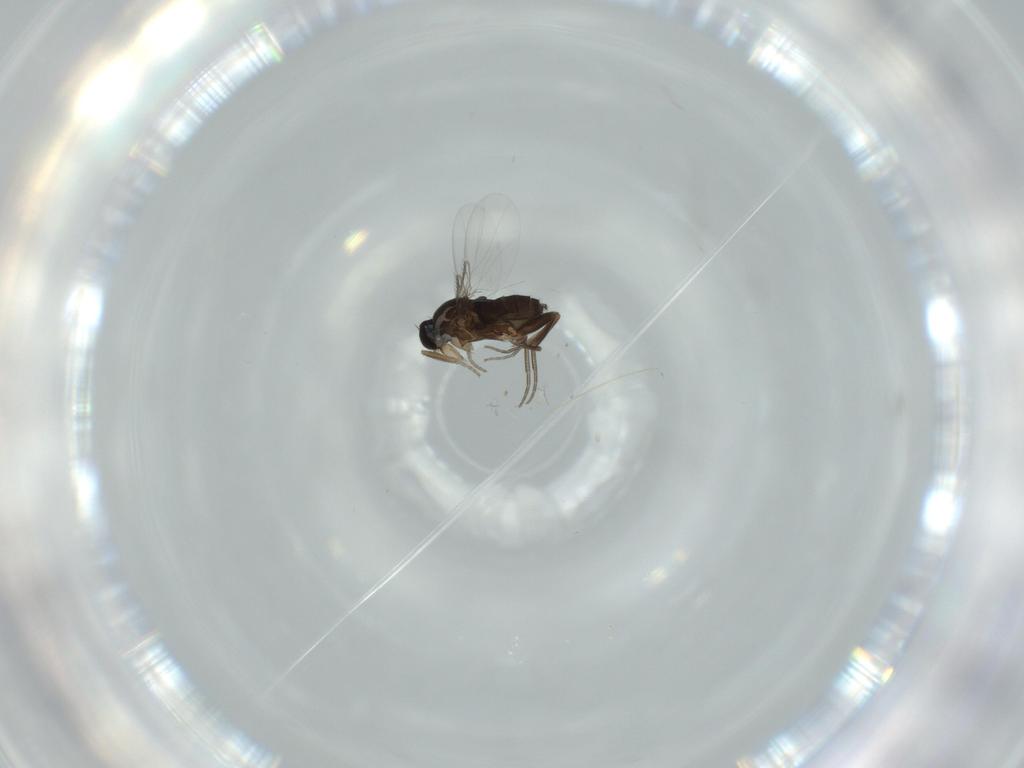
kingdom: Animalia
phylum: Arthropoda
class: Insecta
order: Diptera
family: Phoridae
